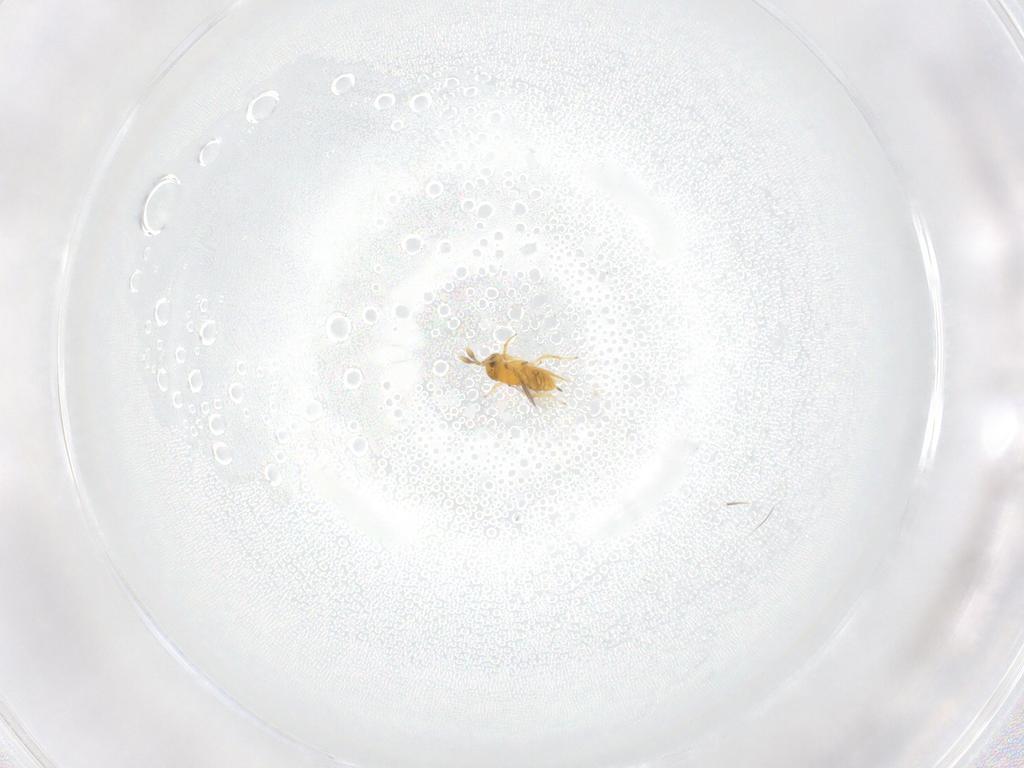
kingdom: Animalia
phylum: Arthropoda
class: Insecta
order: Hymenoptera
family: Encyrtidae
